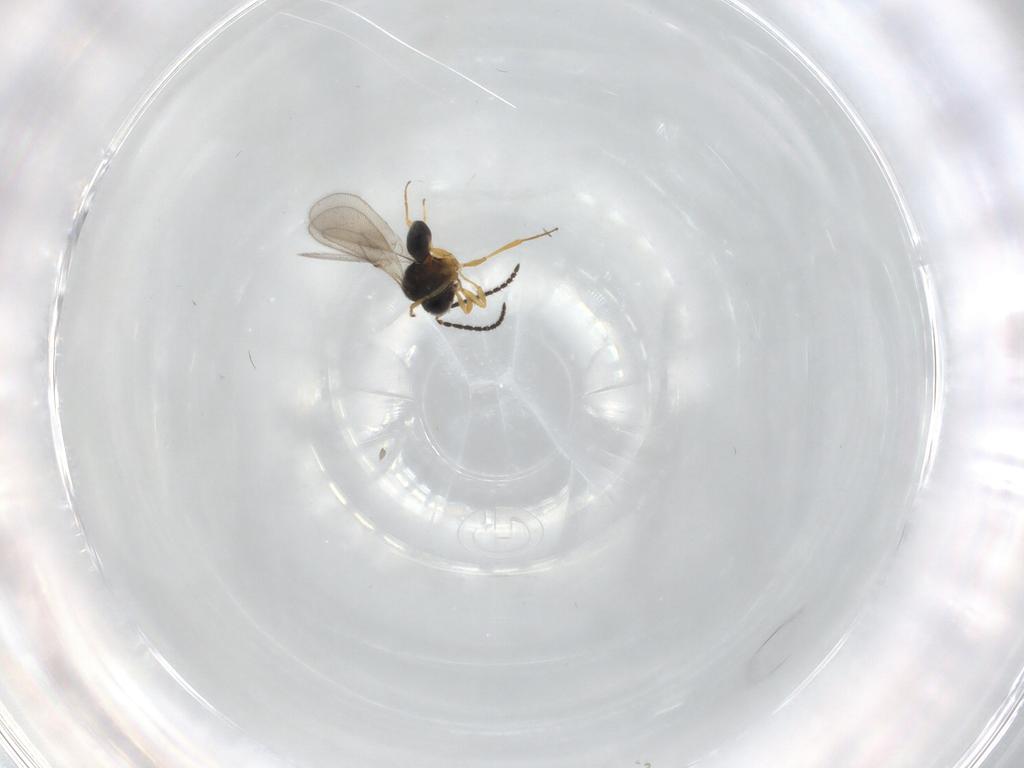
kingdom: Animalia
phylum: Arthropoda
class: Insecta
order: Hymenoptera
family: Scelionidae
